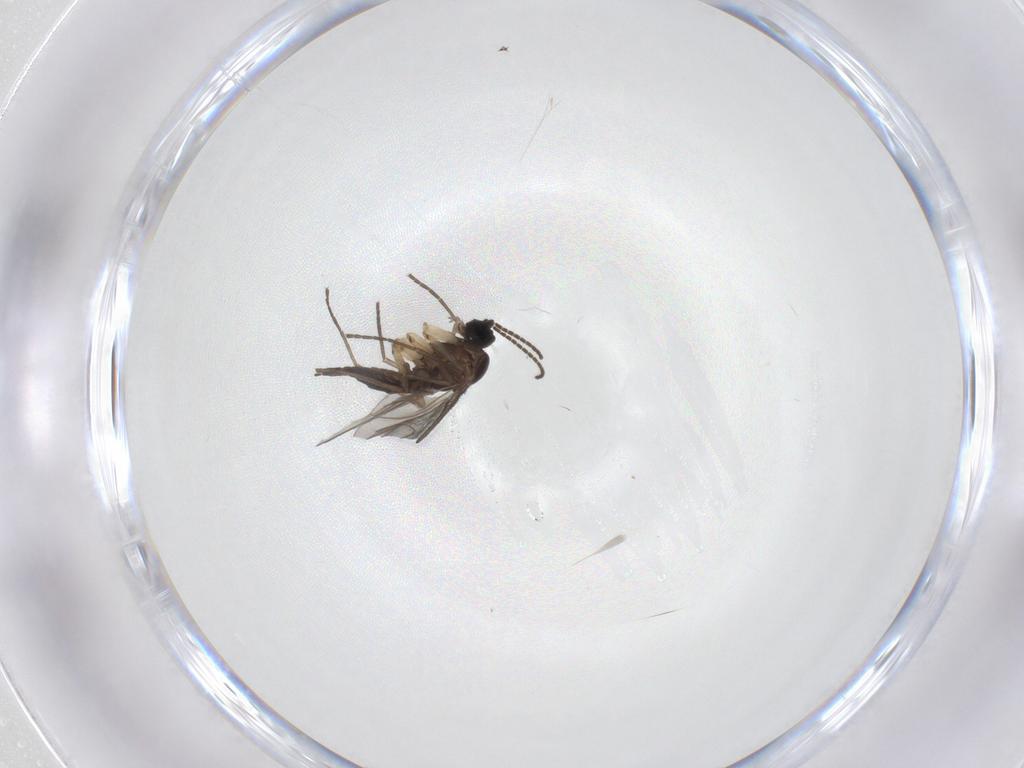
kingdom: Animalia
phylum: Arthropoda
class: Insecta
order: Diptera
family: Sciaridae
